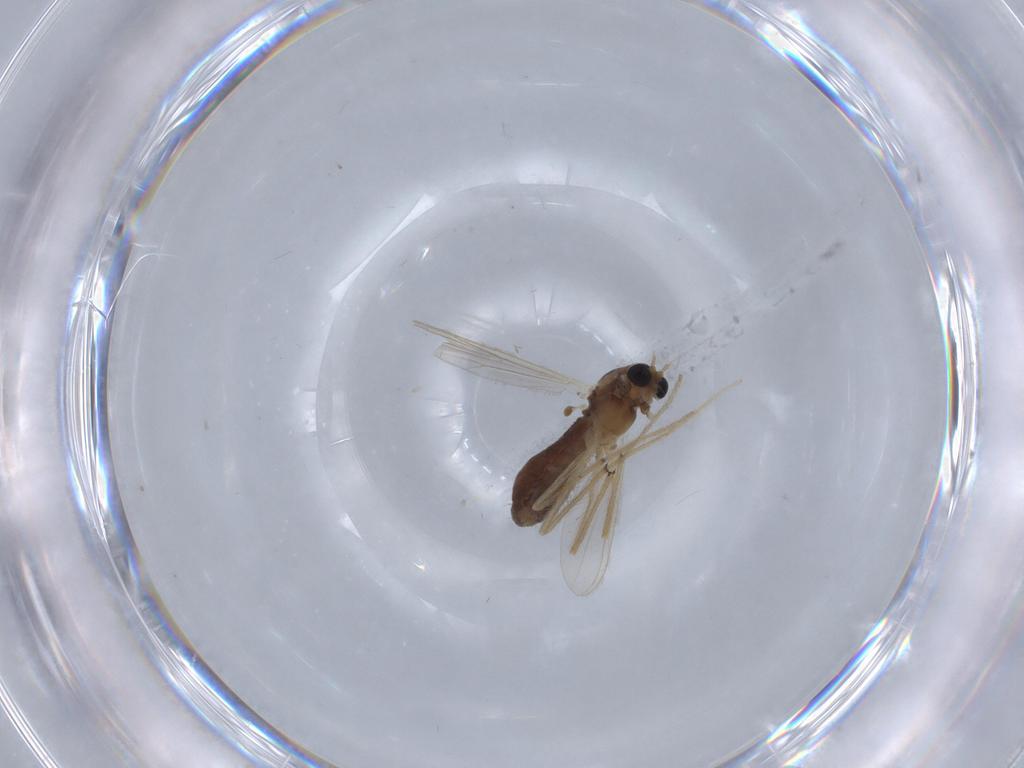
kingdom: Animalia
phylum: Arthropoda
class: Insecta
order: Diptera
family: Chironomidae
